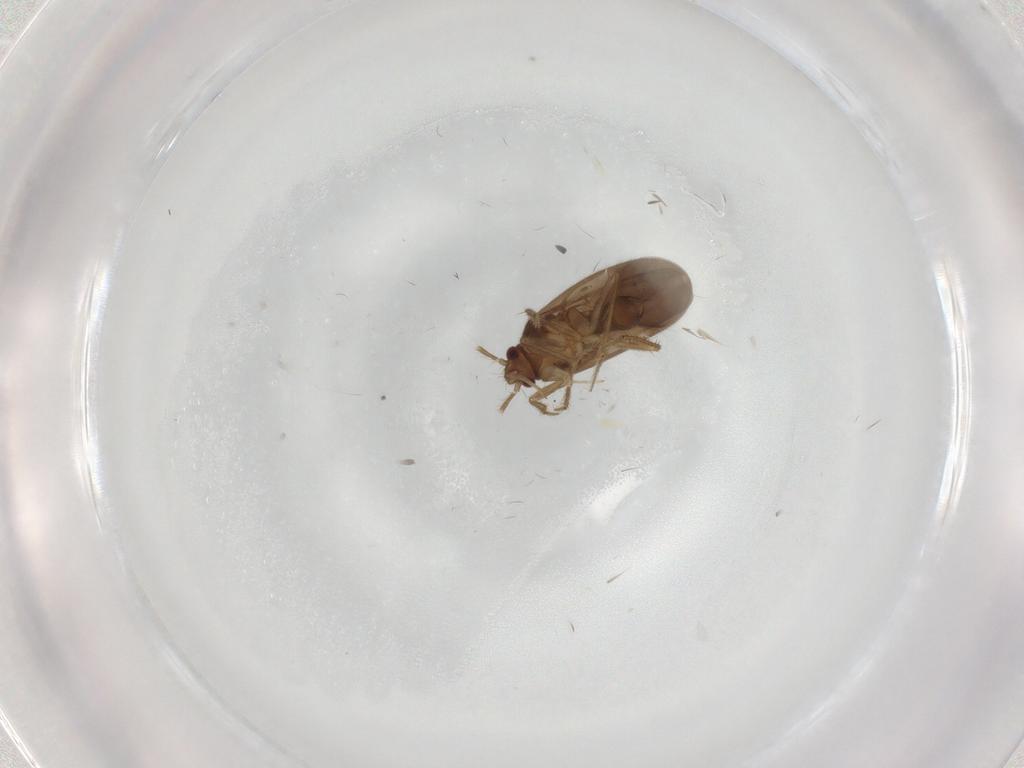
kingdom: Animalia
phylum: Arthropoda
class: Insecta
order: Hemiptera
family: Ceratocombidae
